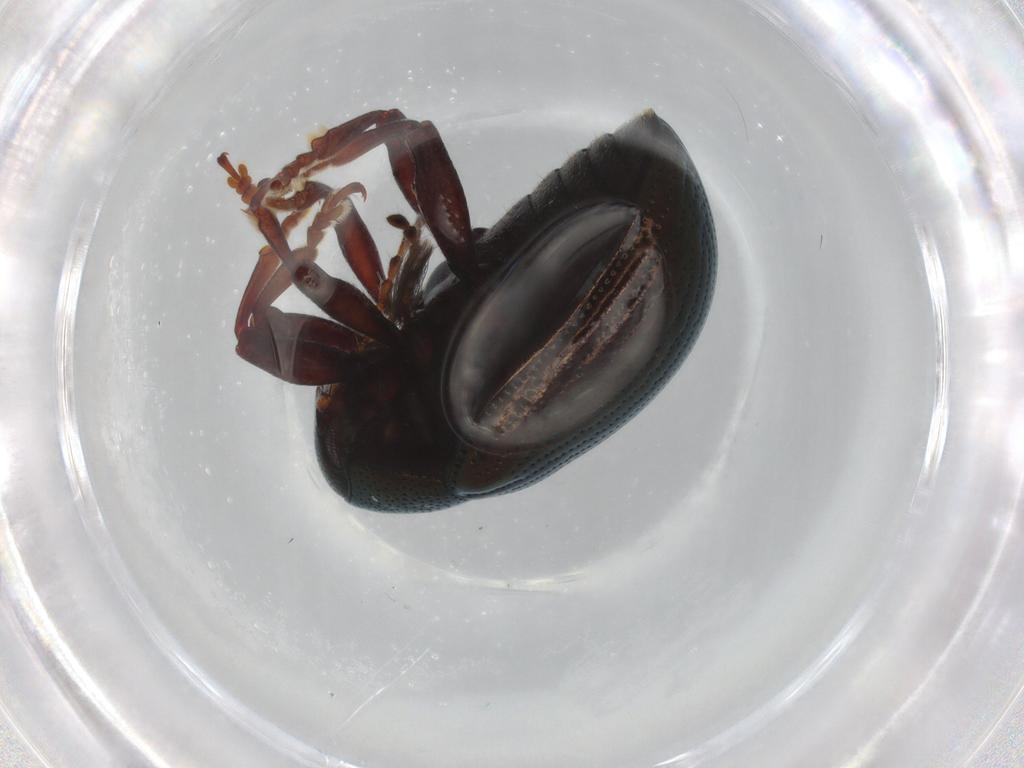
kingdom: Animalia
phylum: Arthropoda
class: Insecta
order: Coleoptera
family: Chrysomelidae
